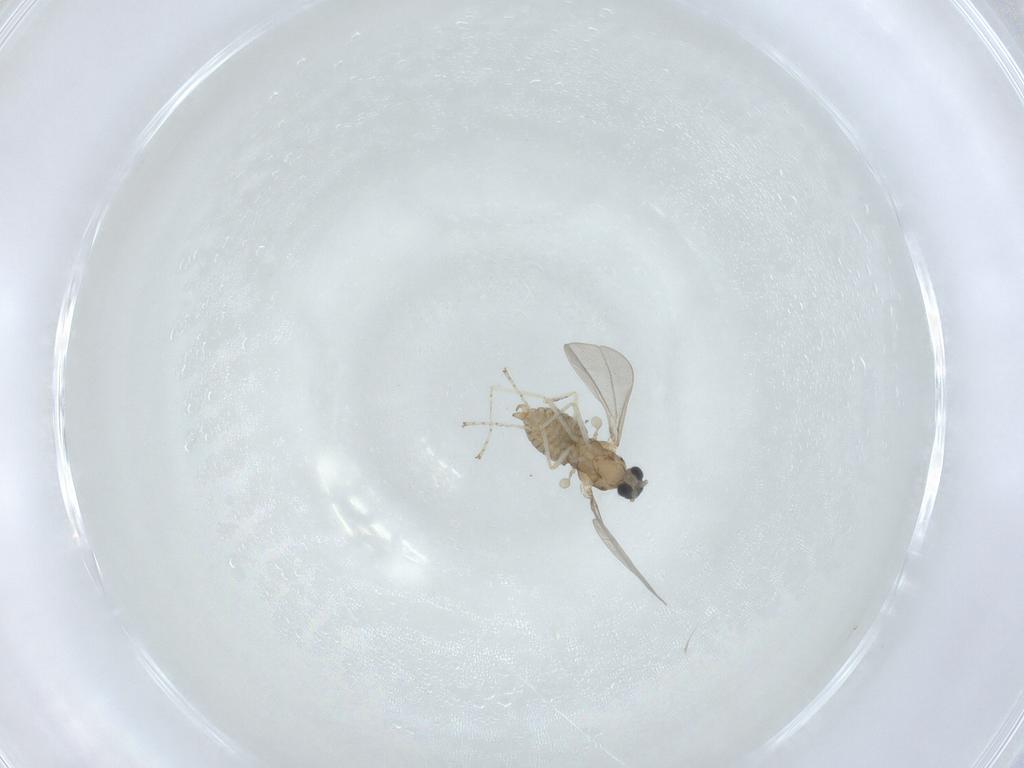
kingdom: Animalia
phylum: Arthropoda
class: Insecta
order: Diptera
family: Cecidomyiidae
